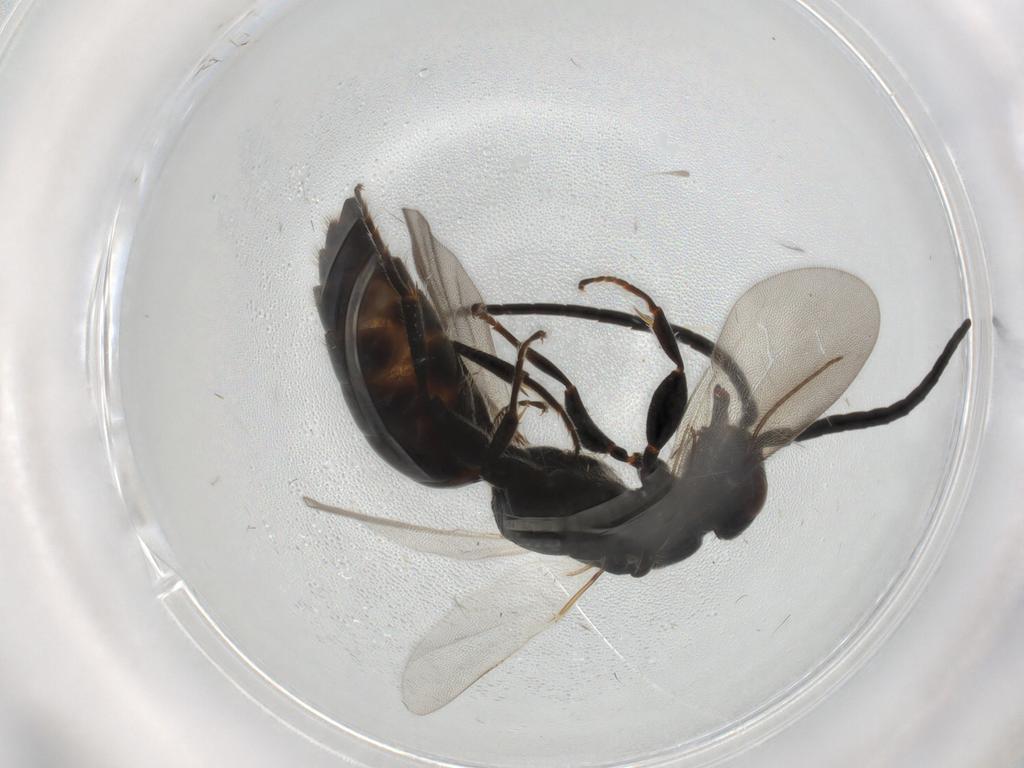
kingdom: Animalia
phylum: Arthropoda
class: Insecta
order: Hymenoptera
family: Bethylidae
